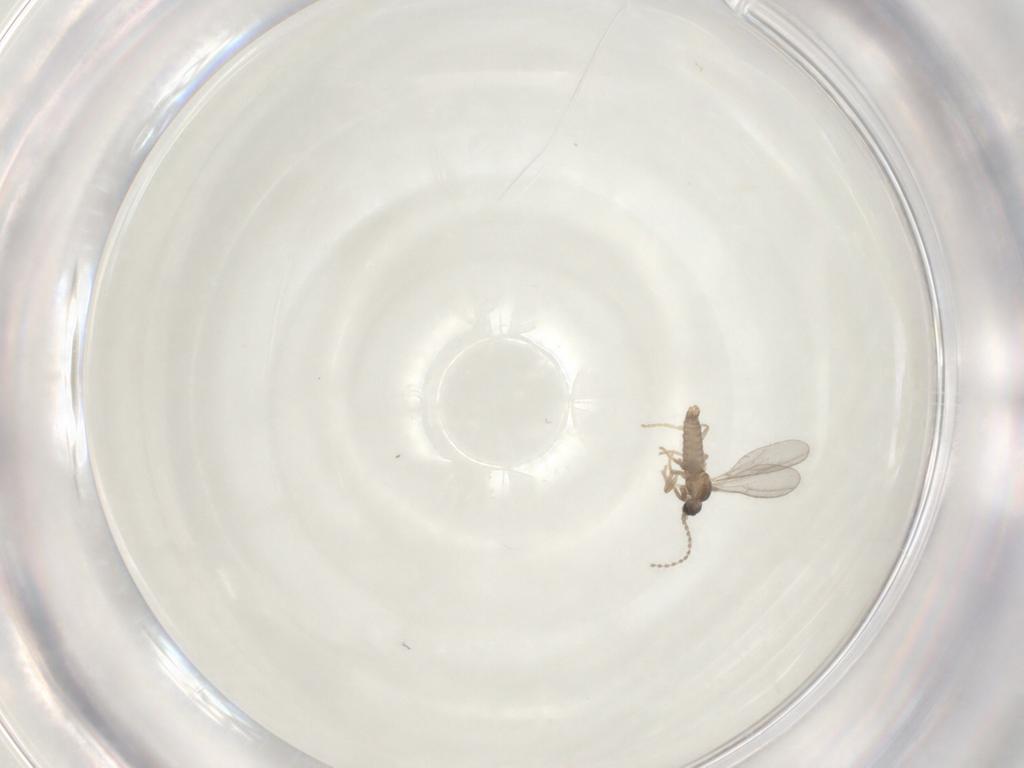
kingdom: Animalia
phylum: Arthropoda
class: Insecta
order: Diptera
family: Cecidomyiidae
